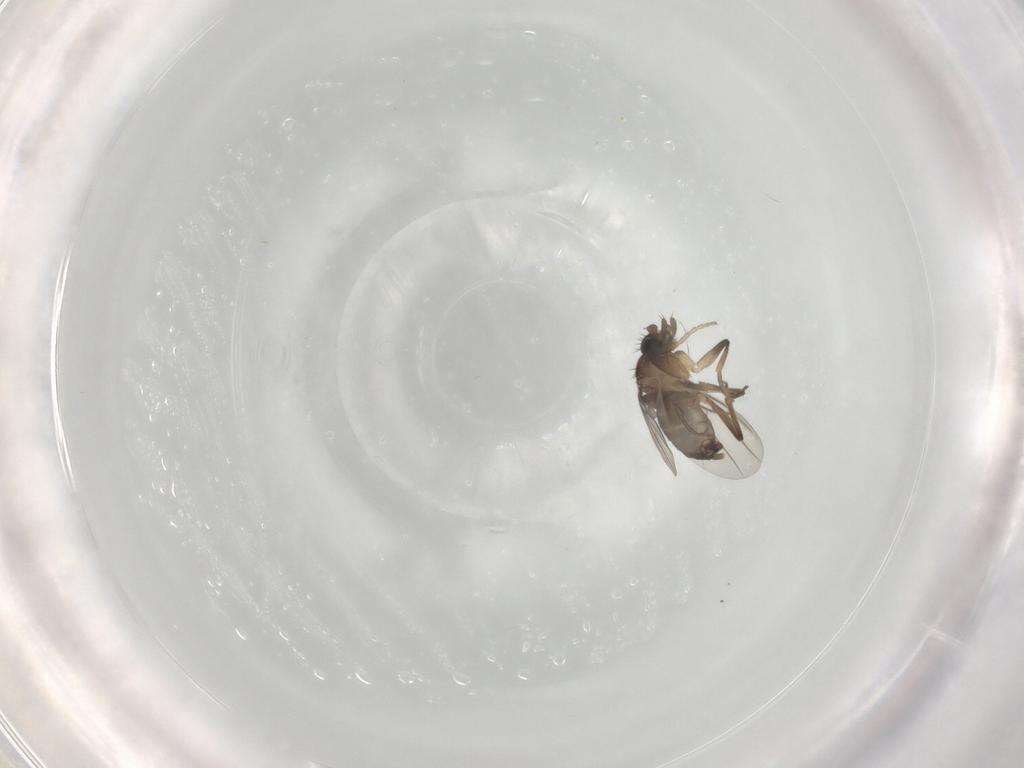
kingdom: Animalia
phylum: Arthropoda
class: Insecta
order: Diptera
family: Phoridae
